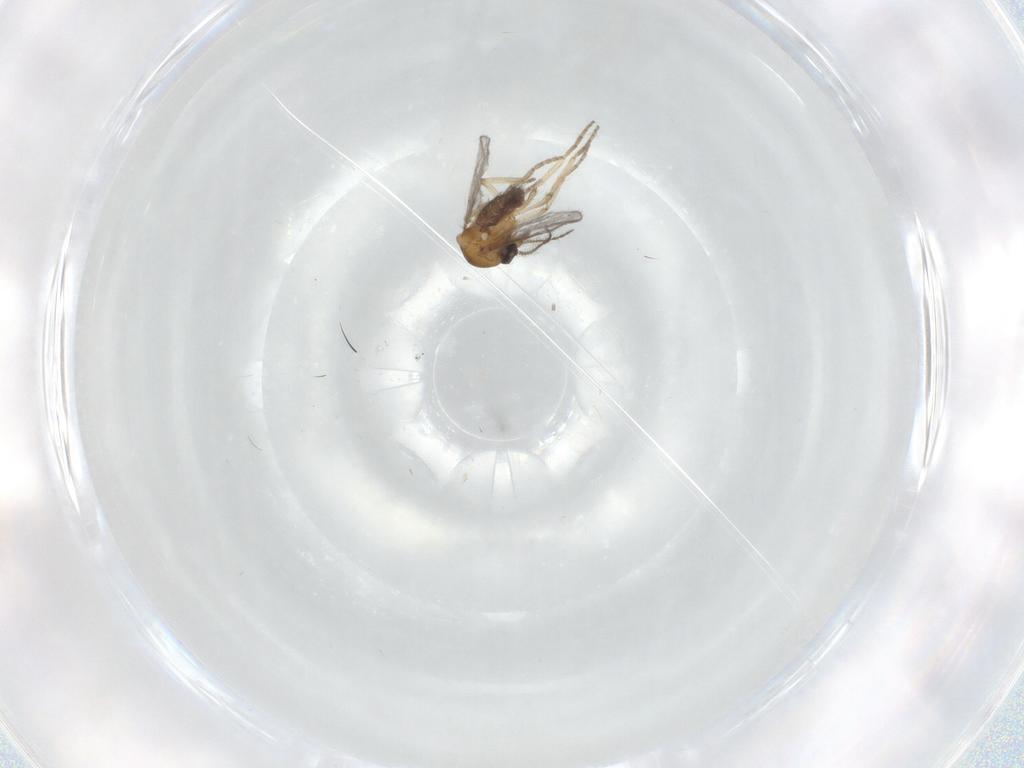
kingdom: Animalia
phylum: Arthropoda
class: Insecta
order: Diptera
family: Dolichopodidae
